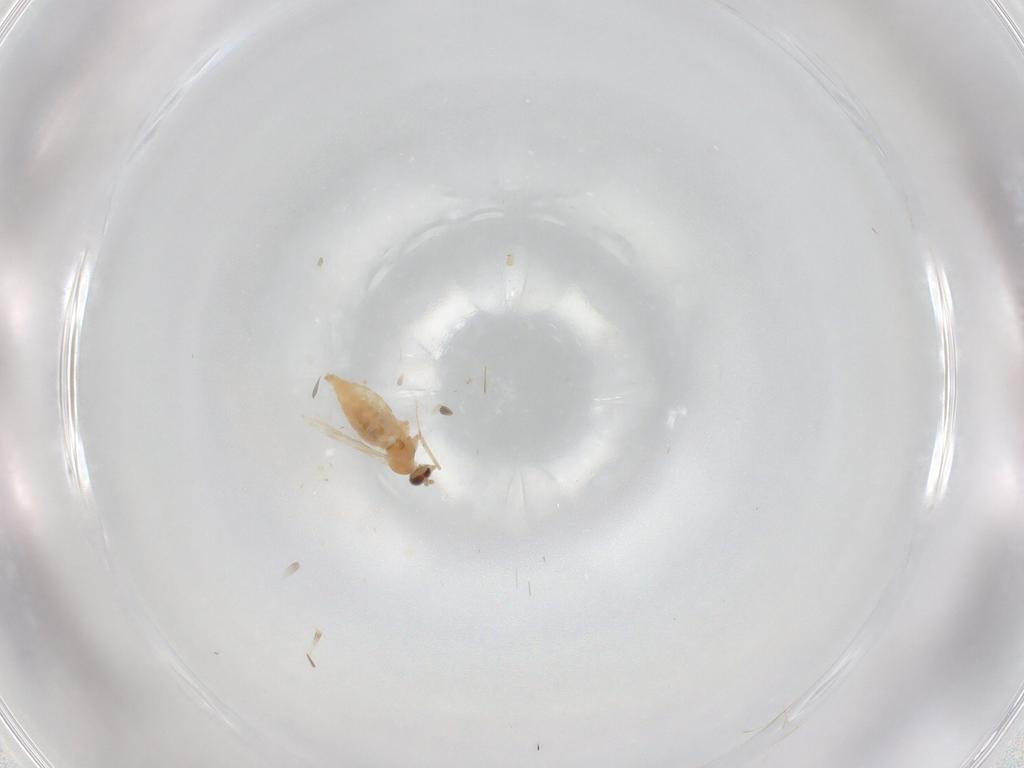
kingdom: Animalia
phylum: Arthropoda
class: Insecta
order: Diptera
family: Cecidomyiidae
